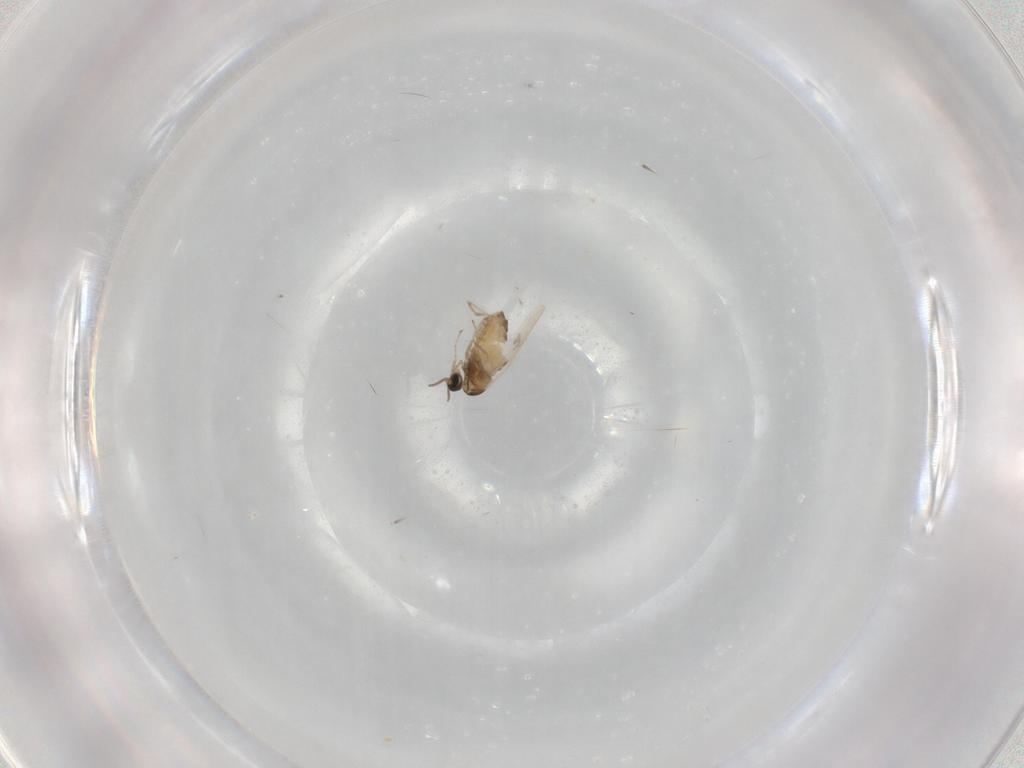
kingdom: Animalia
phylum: Arthropoda
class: Insecta
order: Diptera
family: Cecidomyiidae
